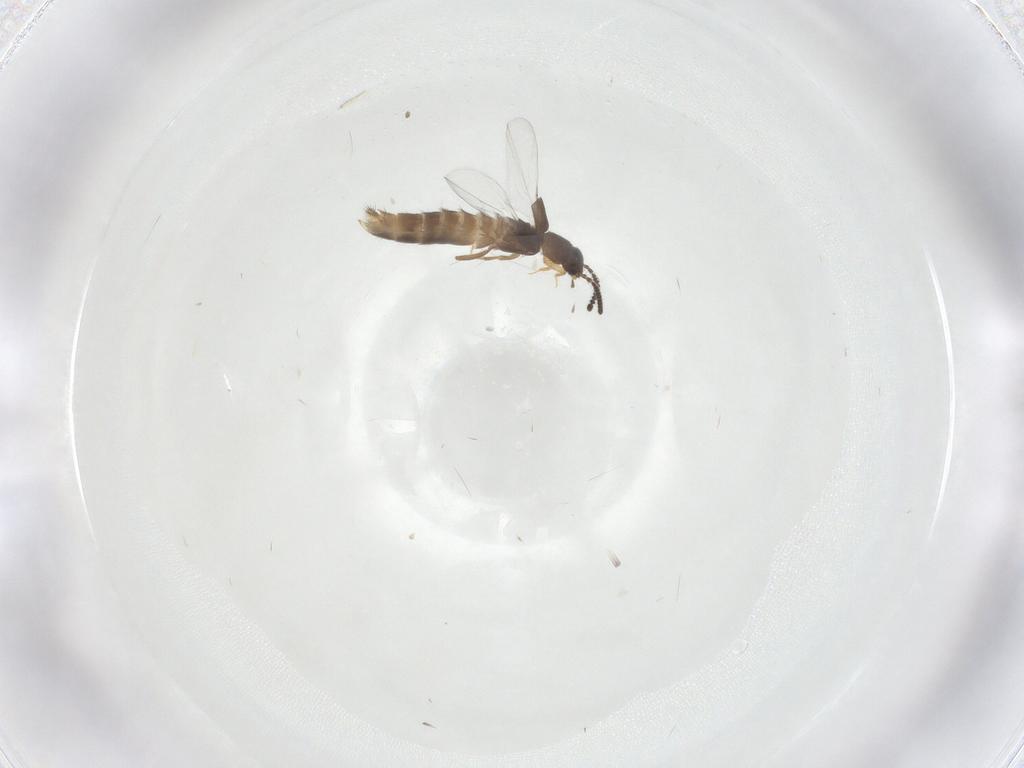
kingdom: Animalia
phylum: Arthropoda
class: Insecta
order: Coleoptera
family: Staphylinidae
